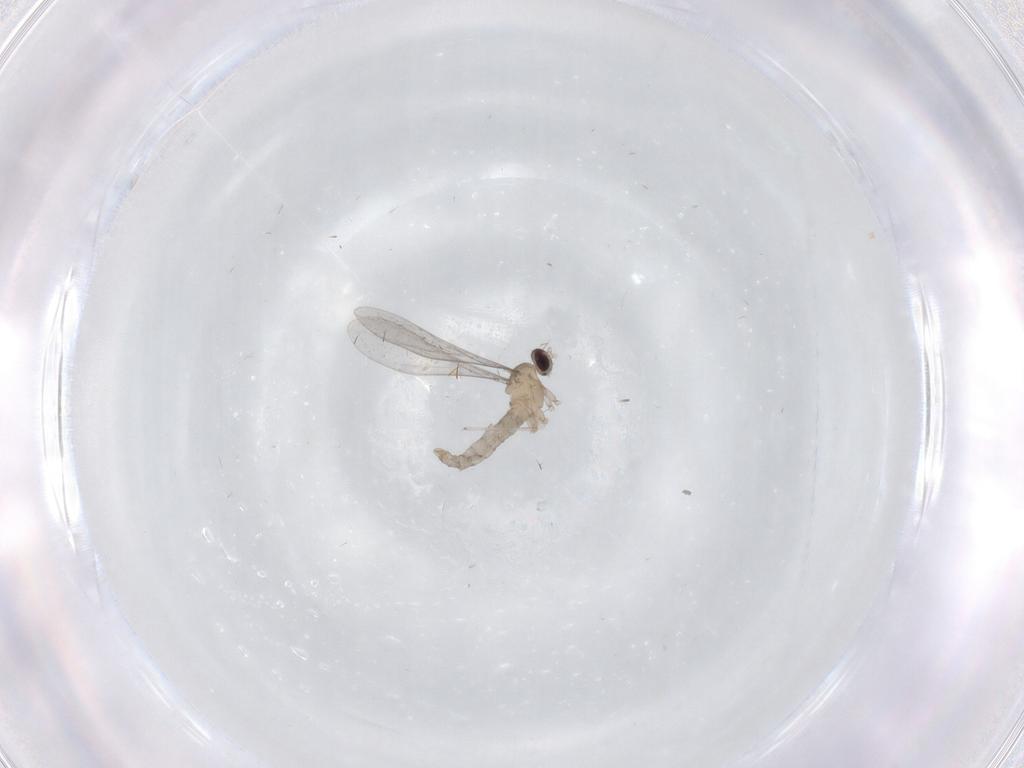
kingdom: Animalia
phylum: Arthropoda
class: Insecta
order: Diptera
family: Cecidomyiidae
